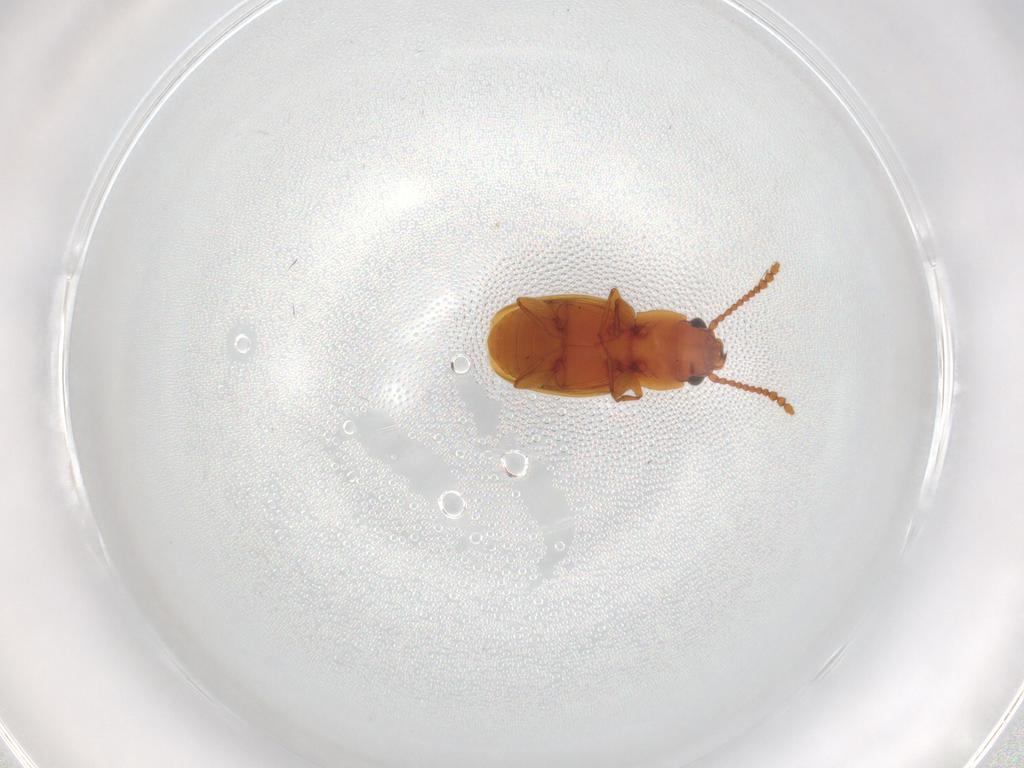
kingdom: Animalia
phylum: Arthropoda
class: Insecta
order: Coleoptera
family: Laemophloeidae
